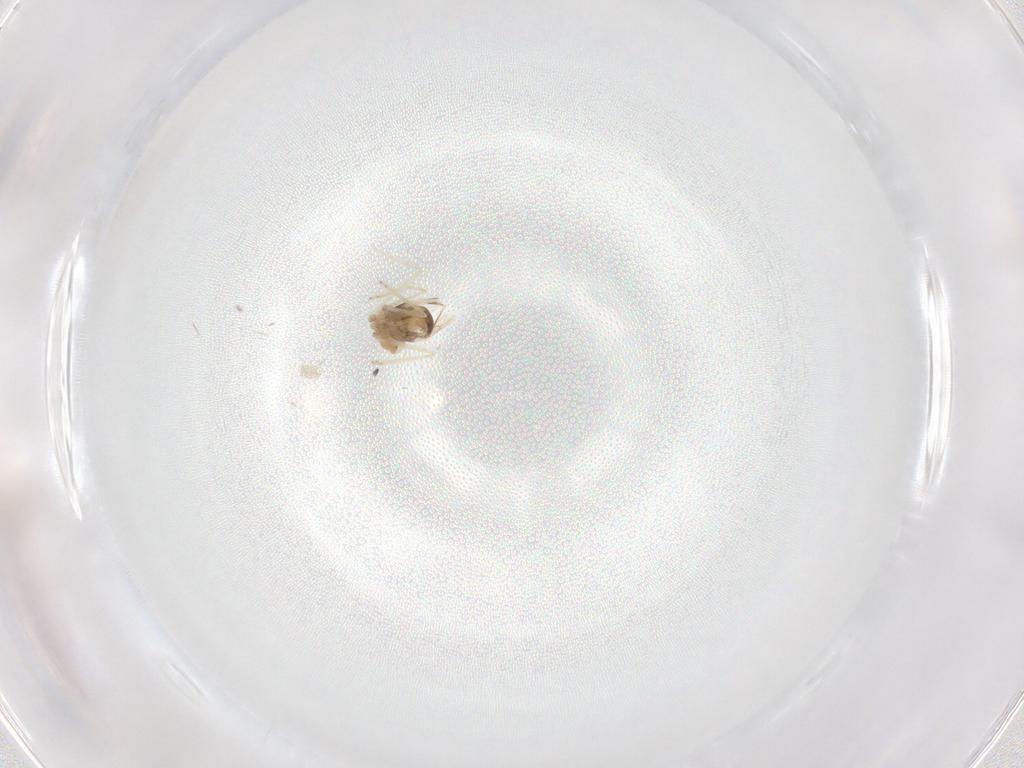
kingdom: Animalia
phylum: Arthropoda
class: Insecta
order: Diptera
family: Cecidomyiidae
